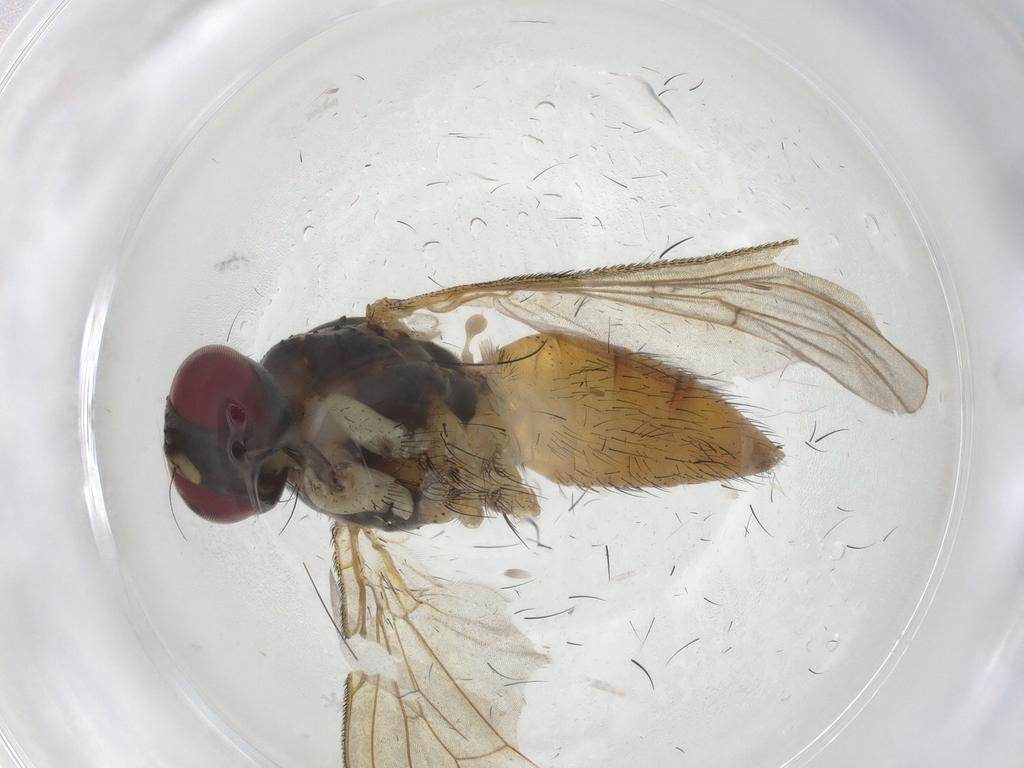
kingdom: Animalia
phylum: Arthropoda
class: Insecta
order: Diptera
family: Muscidae
